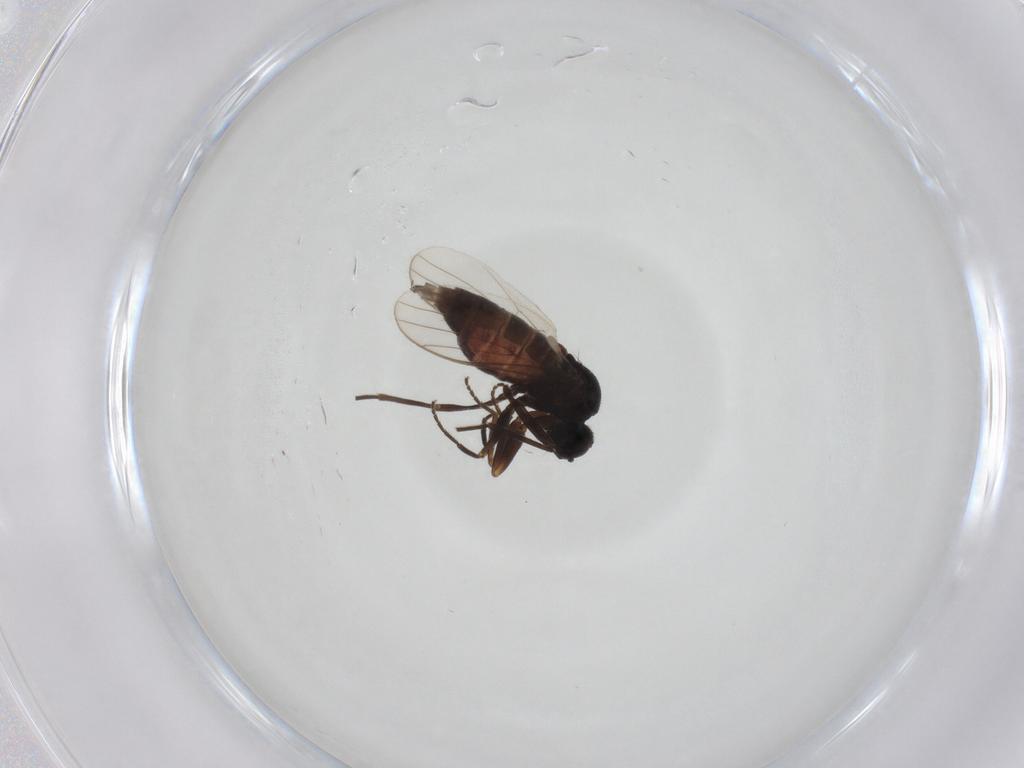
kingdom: Animalia
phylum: Arthropoda
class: Insecta
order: Diptera
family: Hybotidae
